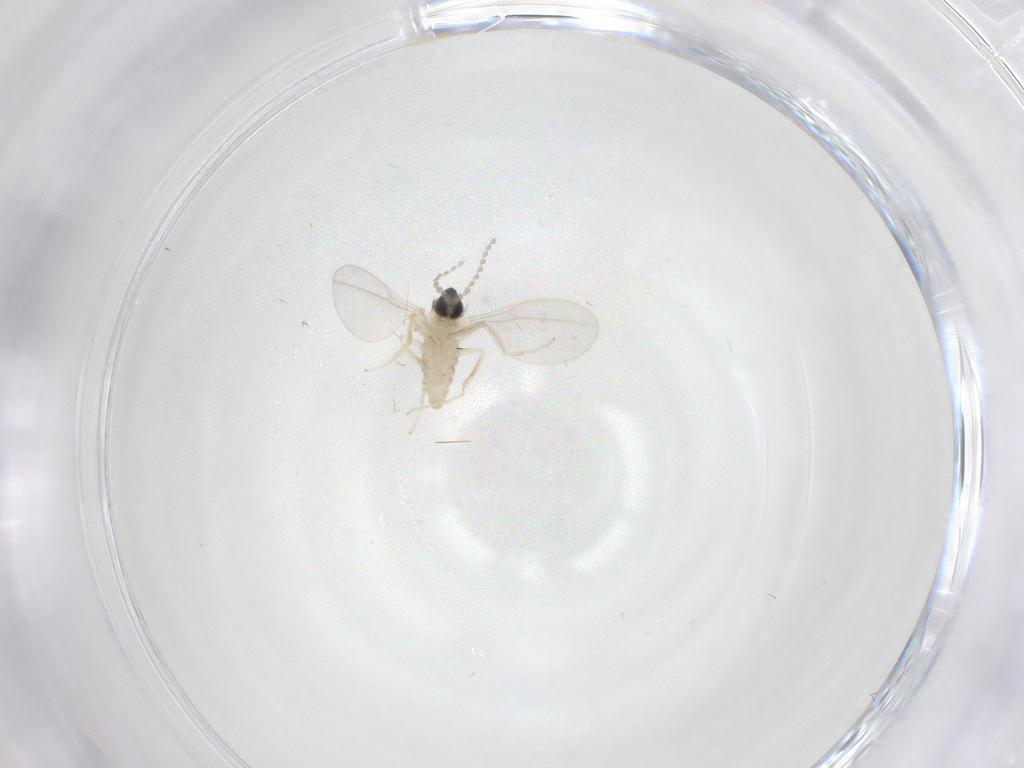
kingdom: Animalia
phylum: Arthropoda
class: Insecta
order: Diptera
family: Cecidomyiidae
